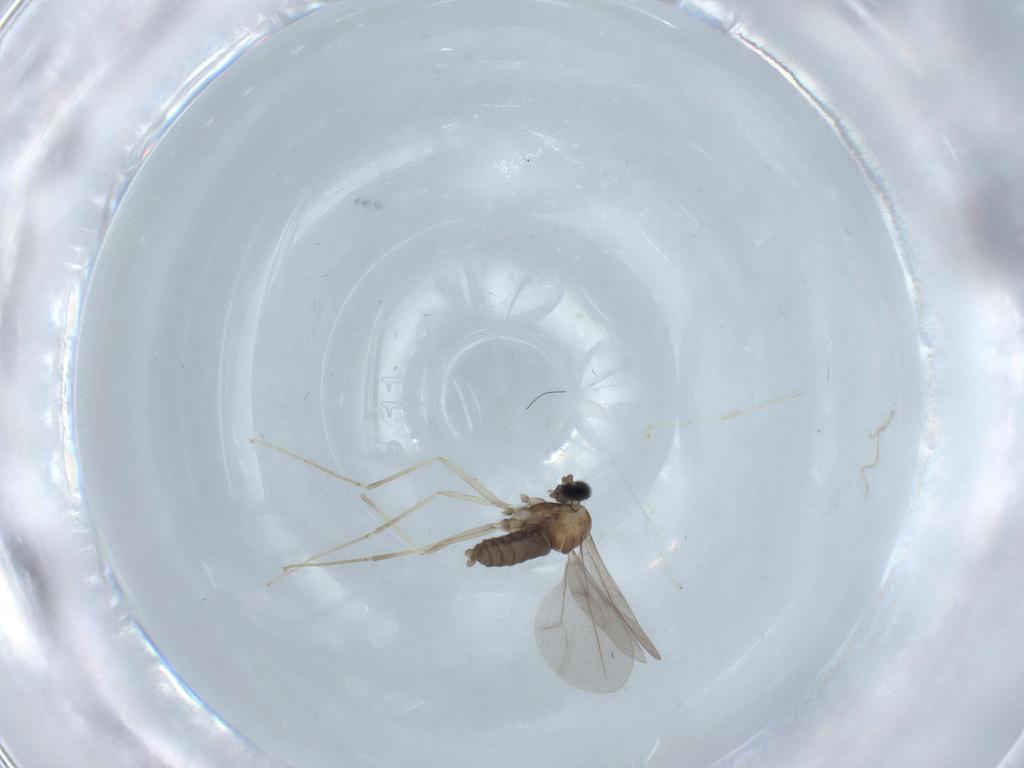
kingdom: Animalia
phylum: Arthropoda
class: Insecta
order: Diptera
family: Cecidomyiidae
